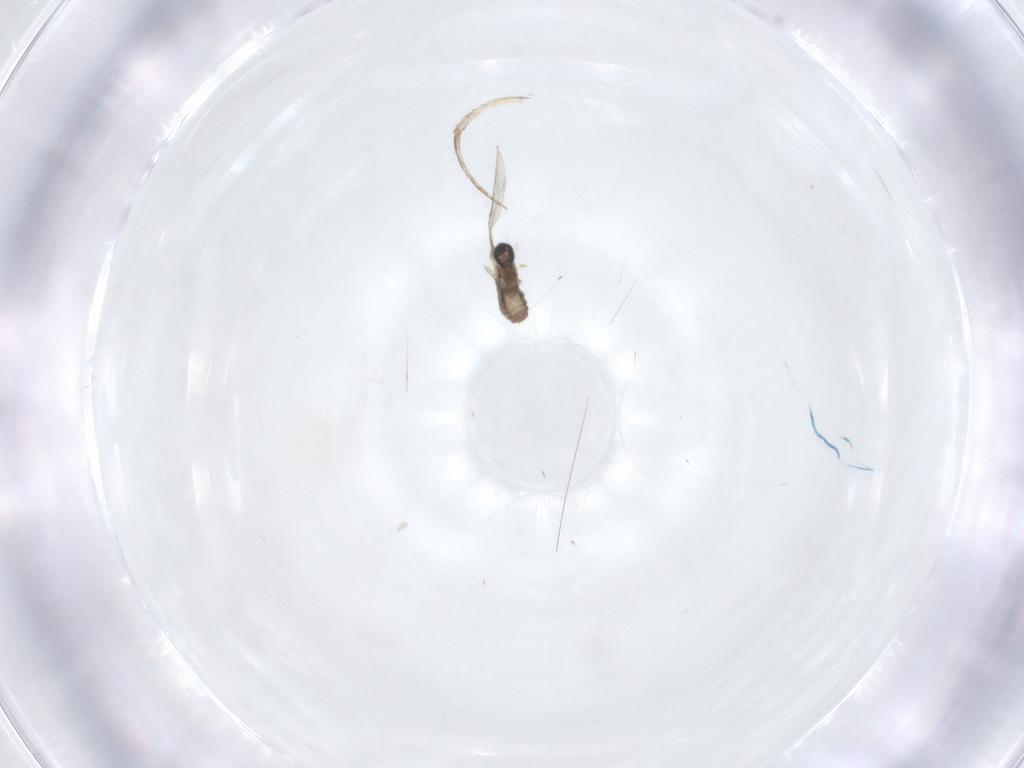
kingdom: Animalia
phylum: Arthropoda
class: Insecta
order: Diptera
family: Cecidomyiidae
